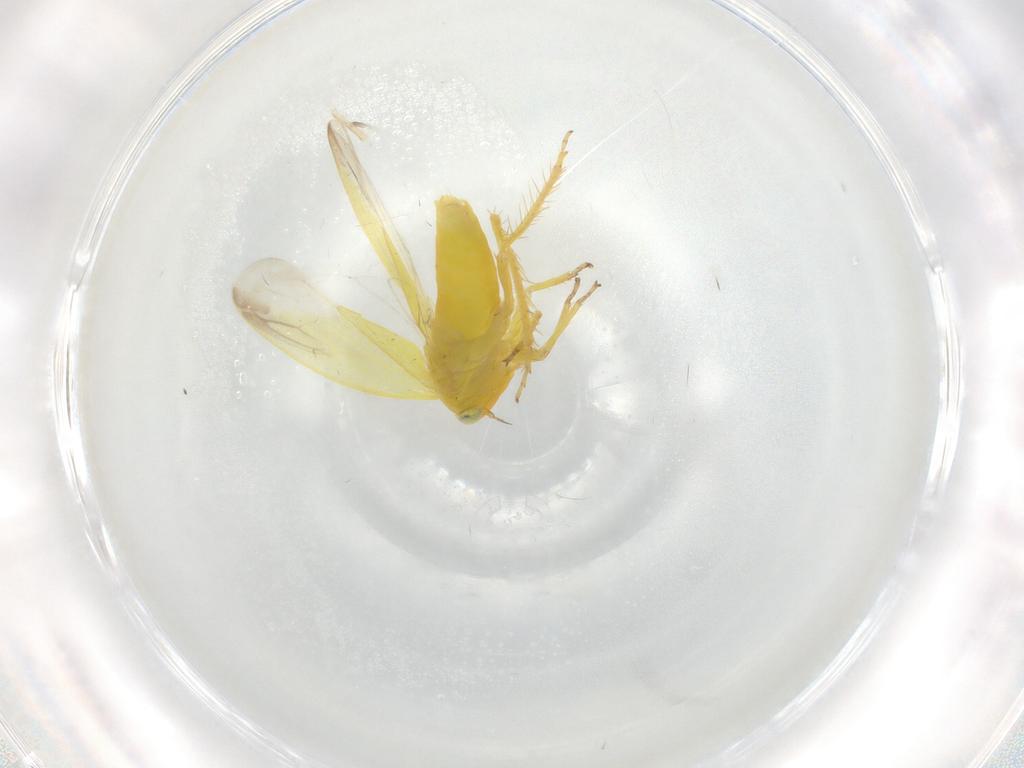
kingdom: Animalia
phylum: Arthropoda
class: Insecta
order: Hemiptera
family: Cicadellidae
